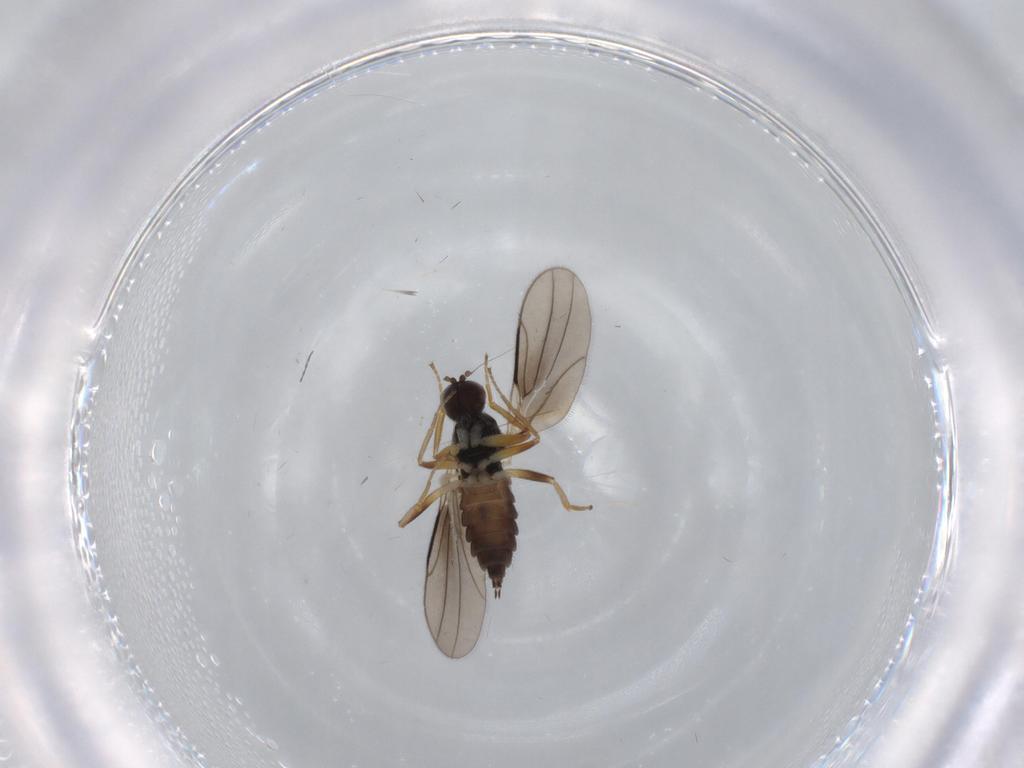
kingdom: Animalia
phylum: Arthropoda
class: Insecta
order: Diptera
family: Hybotidae
